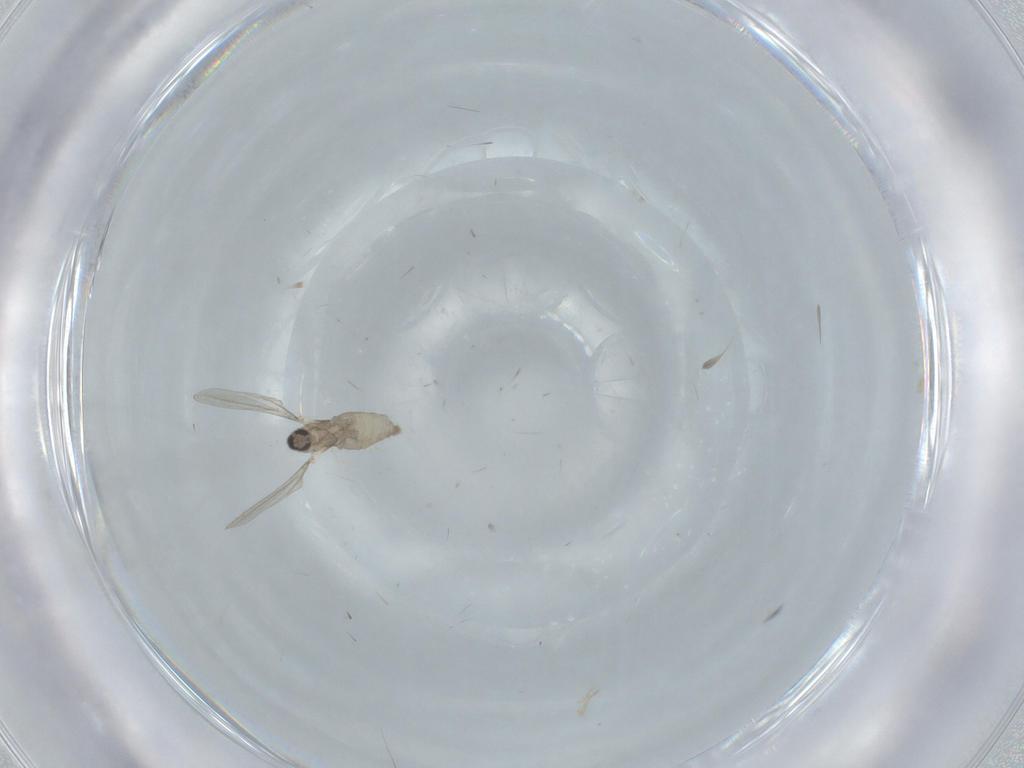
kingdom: Animalia
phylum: Arthropoda
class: Insecta
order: Diptera
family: Cecidomyiidae
